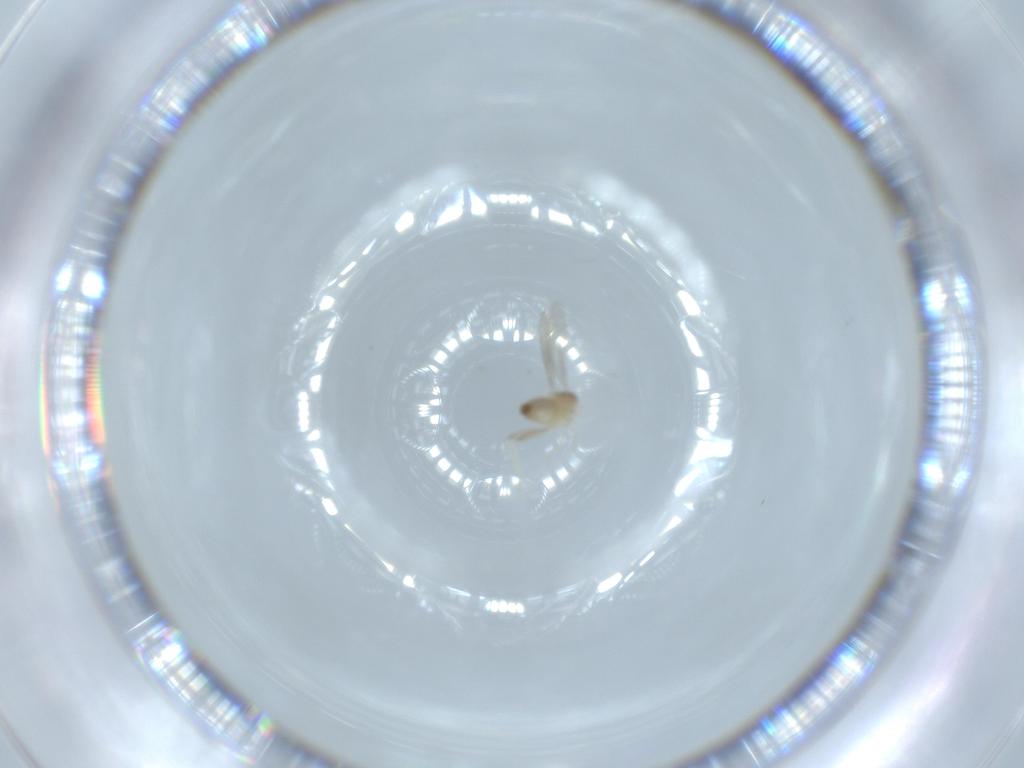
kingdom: Animalia
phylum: Arthropoda
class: Insecta
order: Diptera
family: Cecidomyiidae
